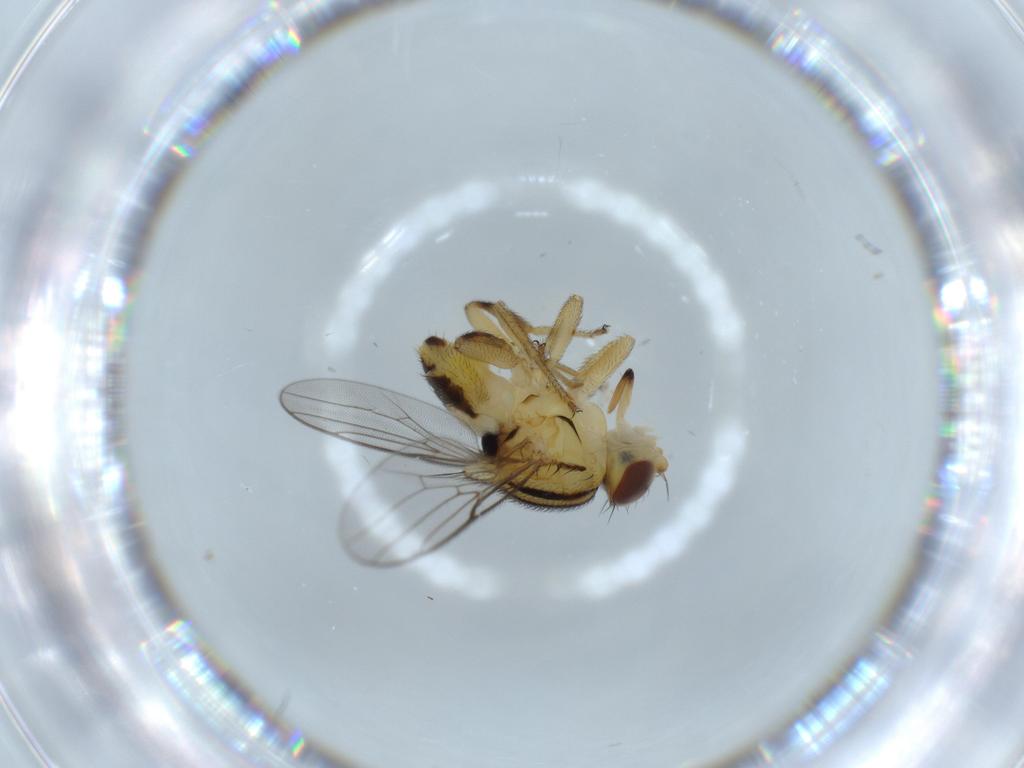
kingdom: Animalia
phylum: Arthropoda
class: Insecta
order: Diptera
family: Chloropidae
